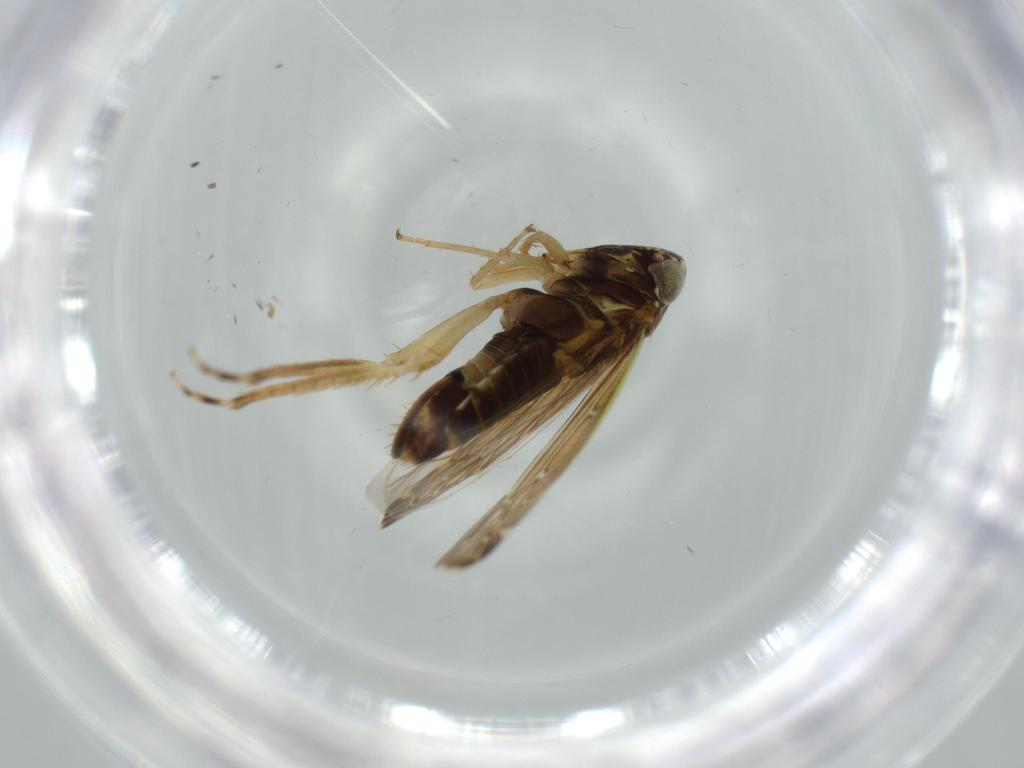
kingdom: Animalia
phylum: Arthropoda
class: Insecta
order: Hemiptera
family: Cicadellidae
